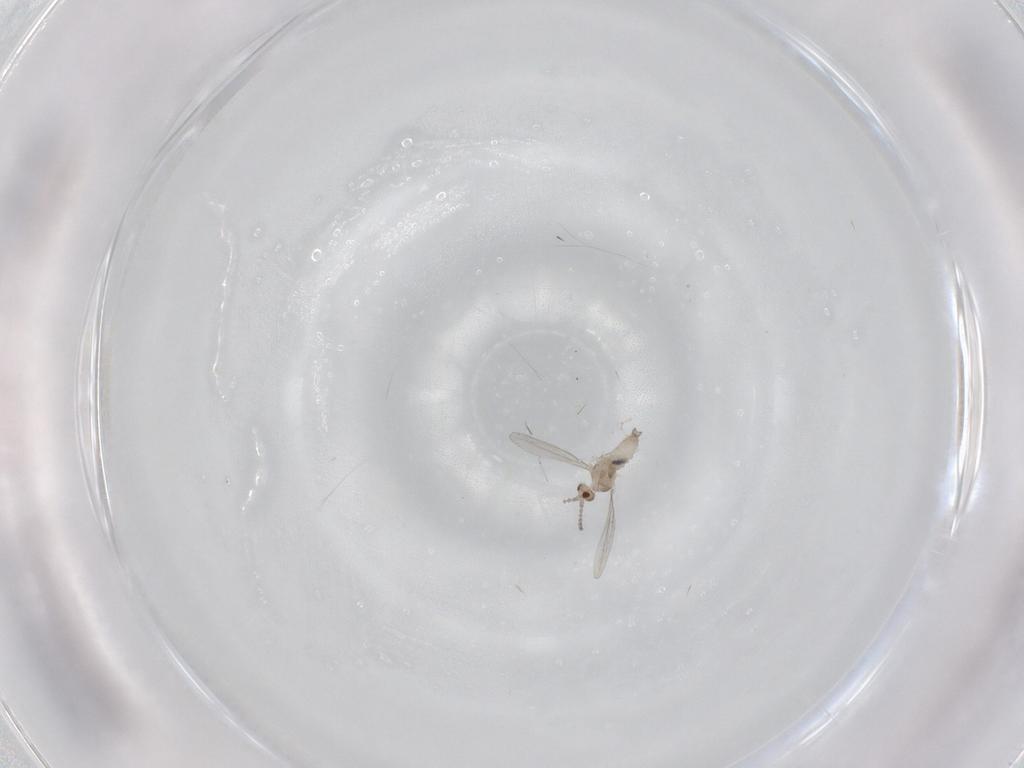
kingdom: Animalia
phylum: Arthropoda
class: Insecta
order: Diptera
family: Cecidomyiidae
